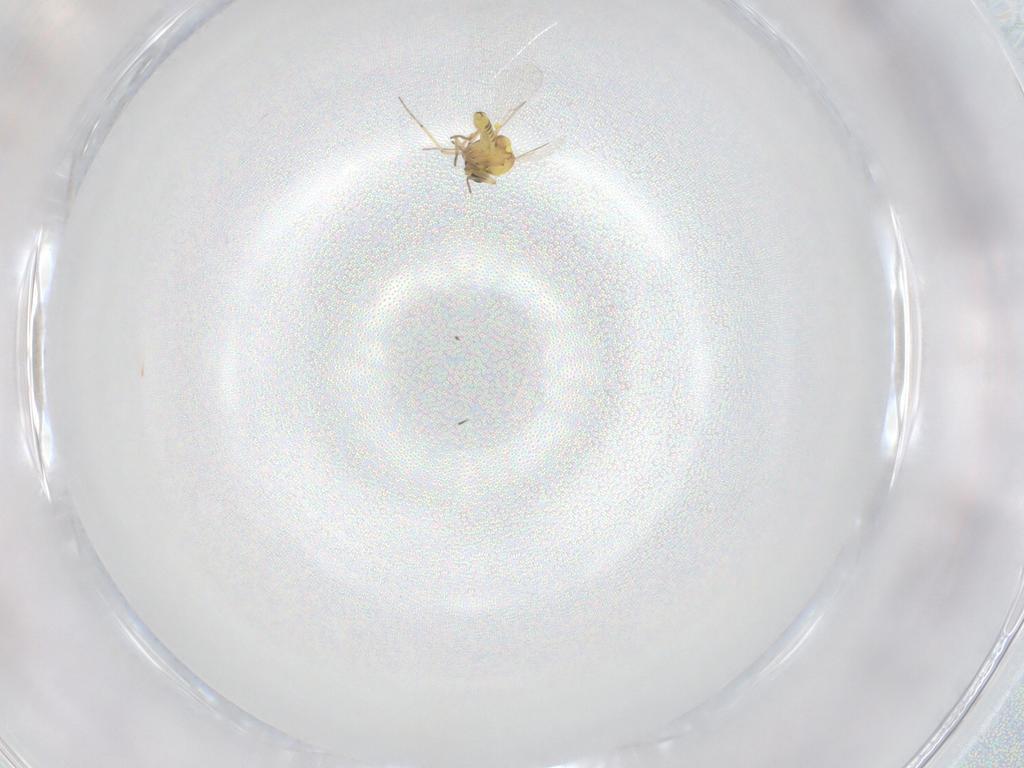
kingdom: Animalia
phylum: Arthropoda
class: Insecta
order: Diptera
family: Ceratopogonidae
